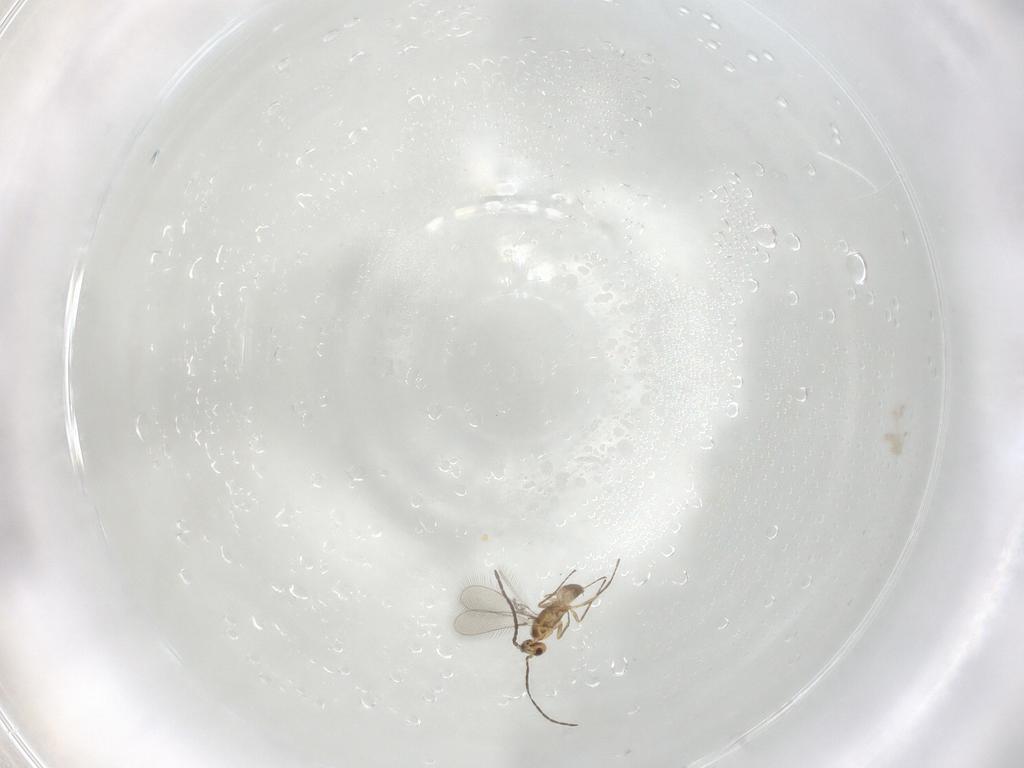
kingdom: Animalia
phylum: Arthropoda
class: Insecta
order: Hymenoptera
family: Mymaridae
